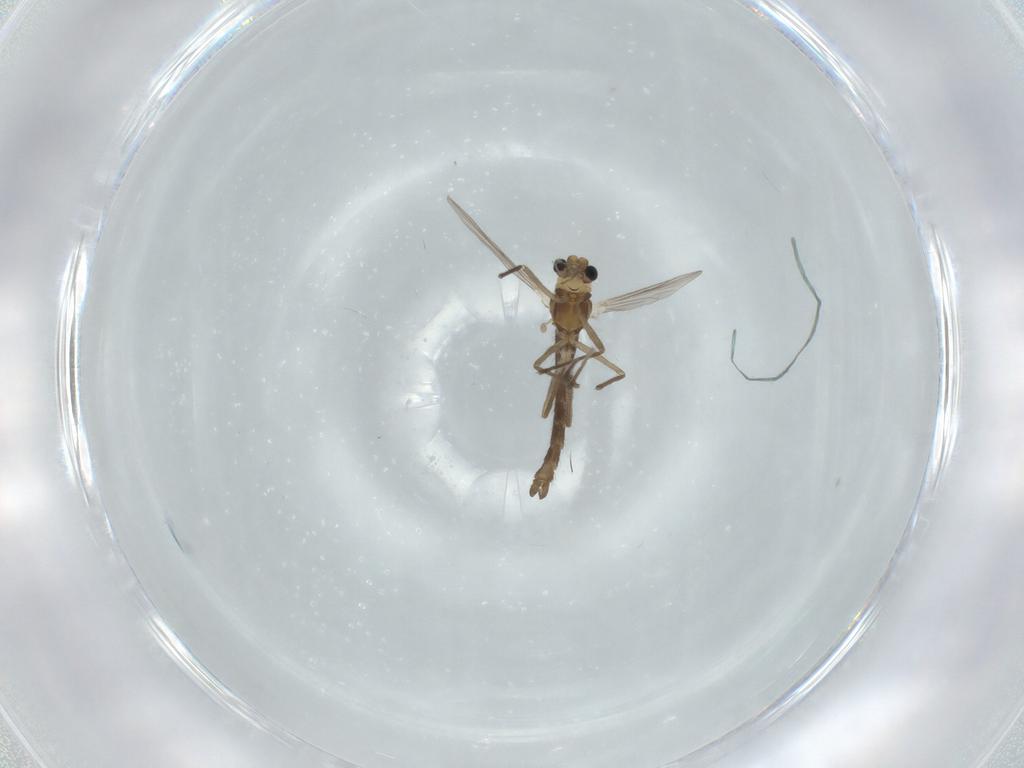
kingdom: Animalia
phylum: Arthropoda
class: Insecta
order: Diptera
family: Chironomidae
